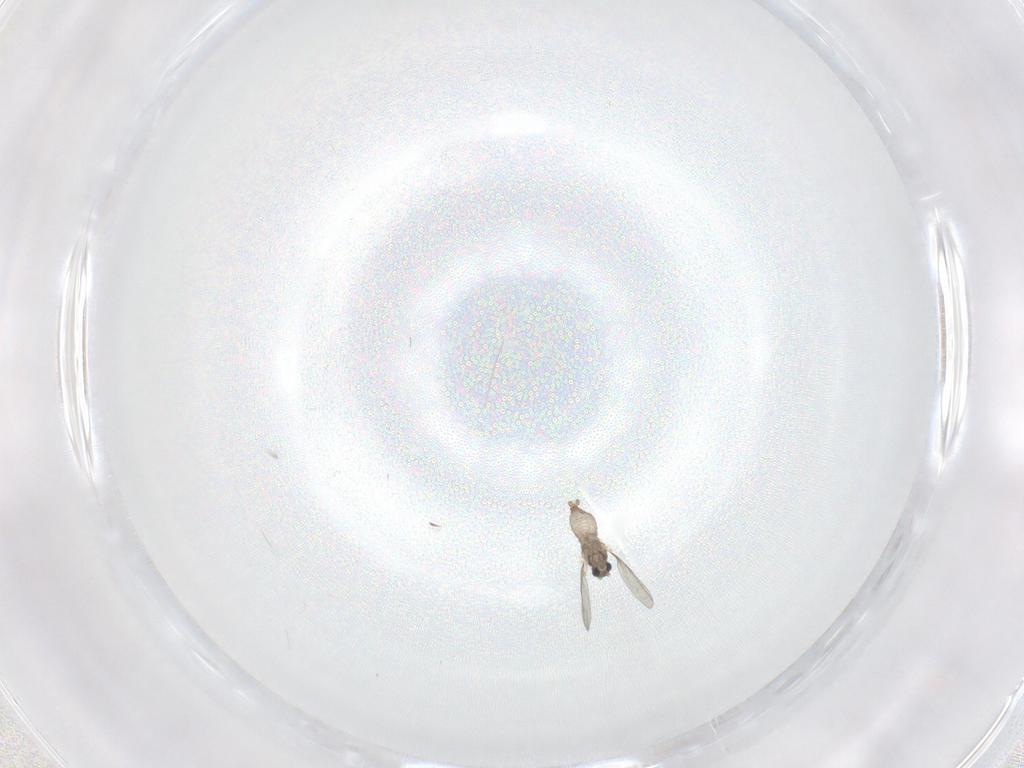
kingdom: Animalia
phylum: Arthropoda
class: Insecta
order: Diptera
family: Cecidomyiidae
